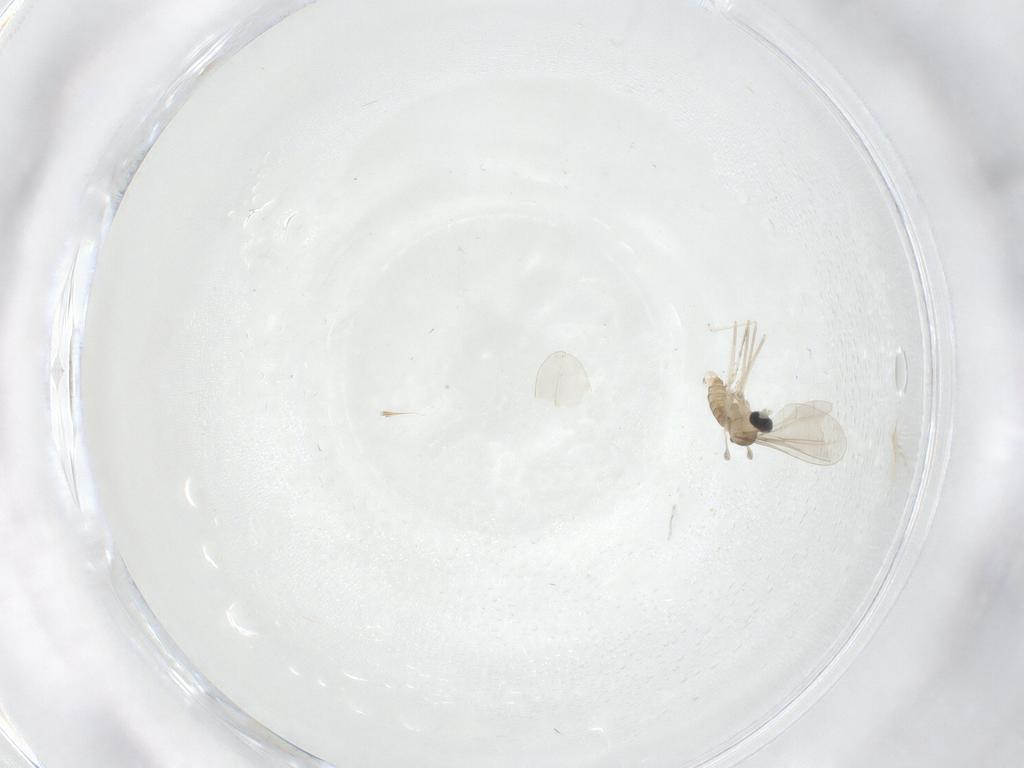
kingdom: Animalia
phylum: Arthropoda
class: Insecta
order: Diptera
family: Cecidomyiidae
